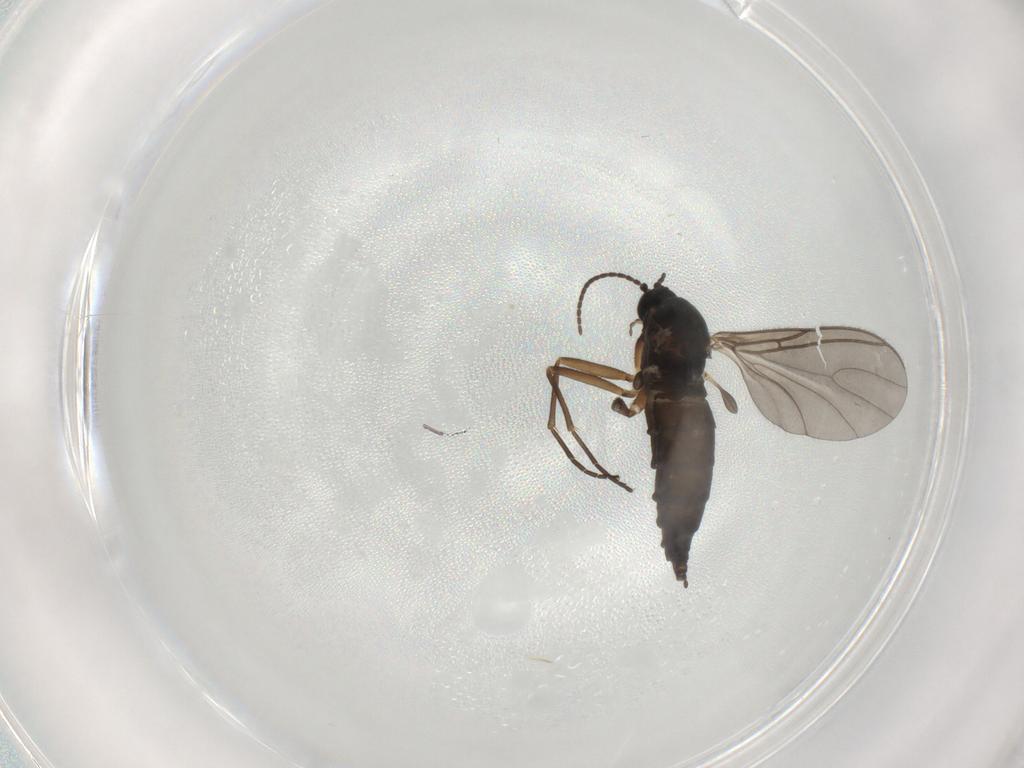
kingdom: Animalia
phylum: Arthropoda
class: Insecta
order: Diptera
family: Sciaridae
